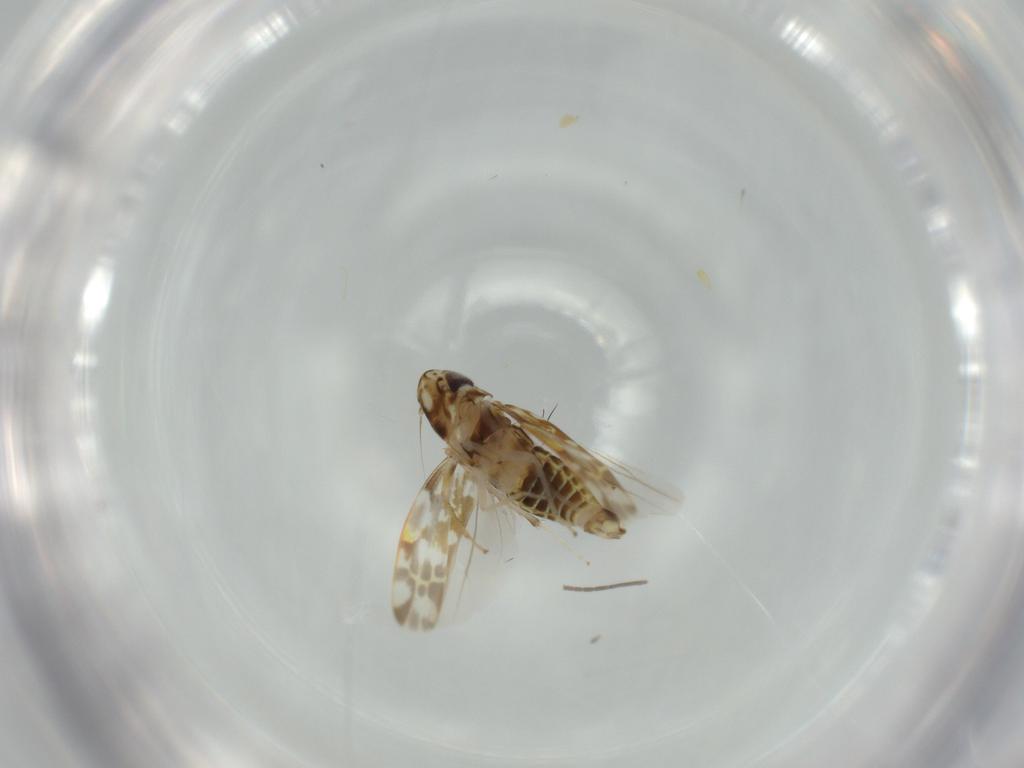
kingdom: Animalia
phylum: Arthropoda
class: Insecta
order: Hemiptera
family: Cicadellidae
